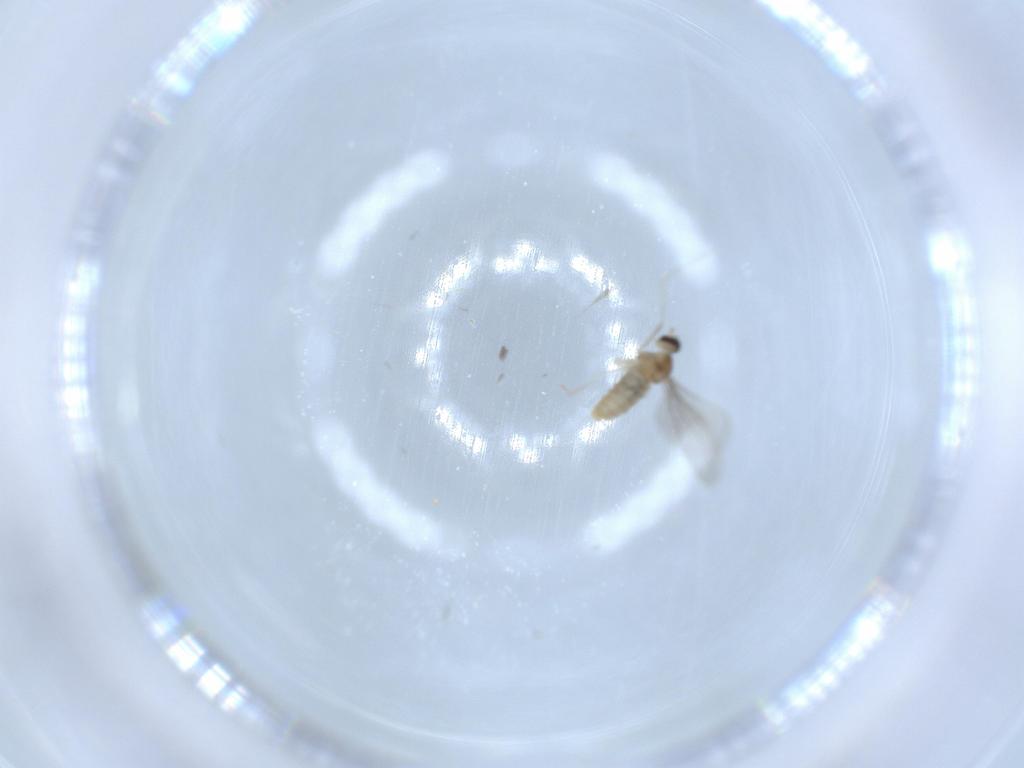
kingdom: Animalia
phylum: Arthropoda
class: Insecta
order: Diptera
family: Cecidomyiidae
